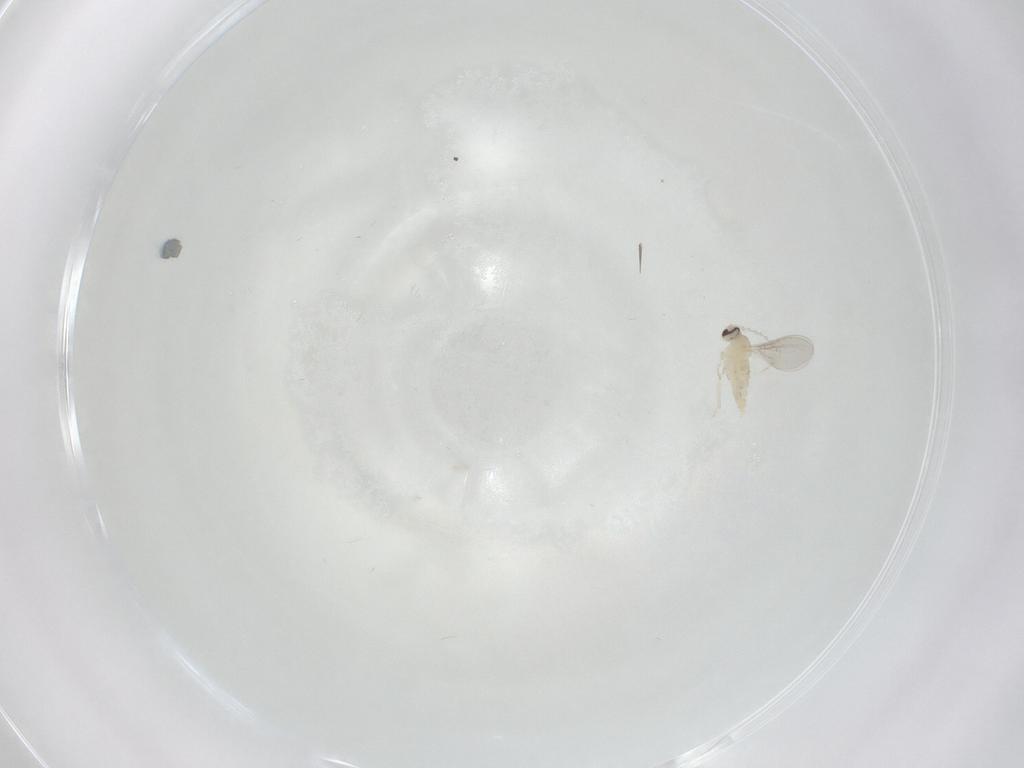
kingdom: Animalia
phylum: Arthropoda
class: Insecta
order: Diptera
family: Cecidomyiidae
